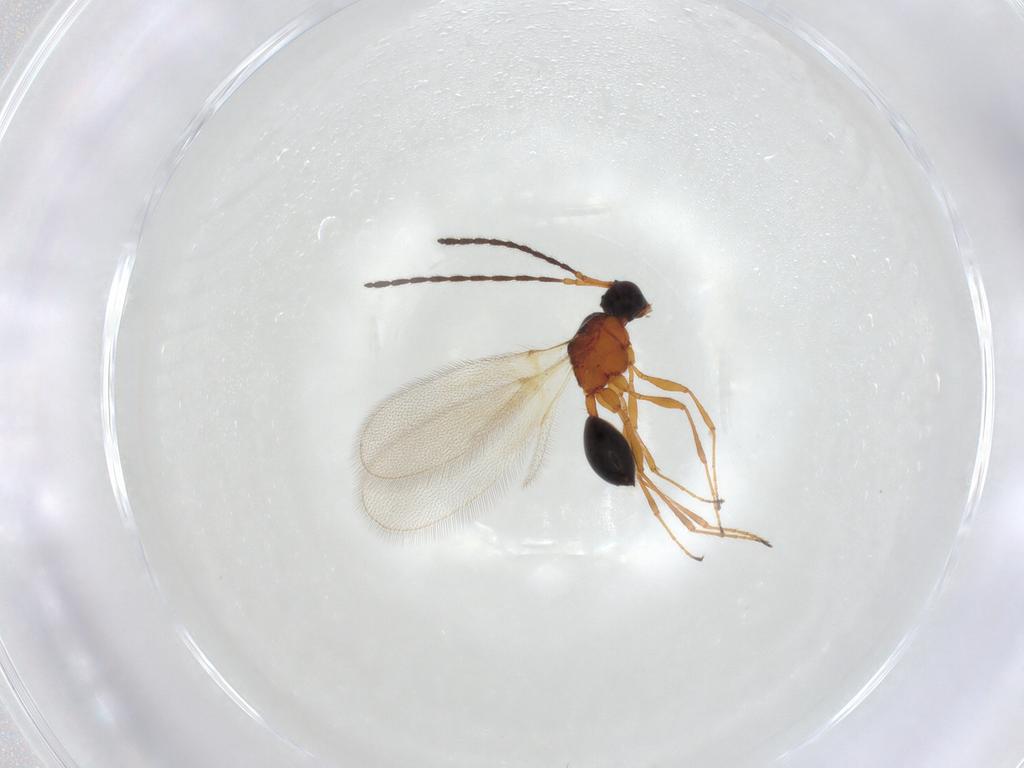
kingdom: Animalia
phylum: Arthropoda
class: Insecta
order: Hymenoptera
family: Diapriidae
